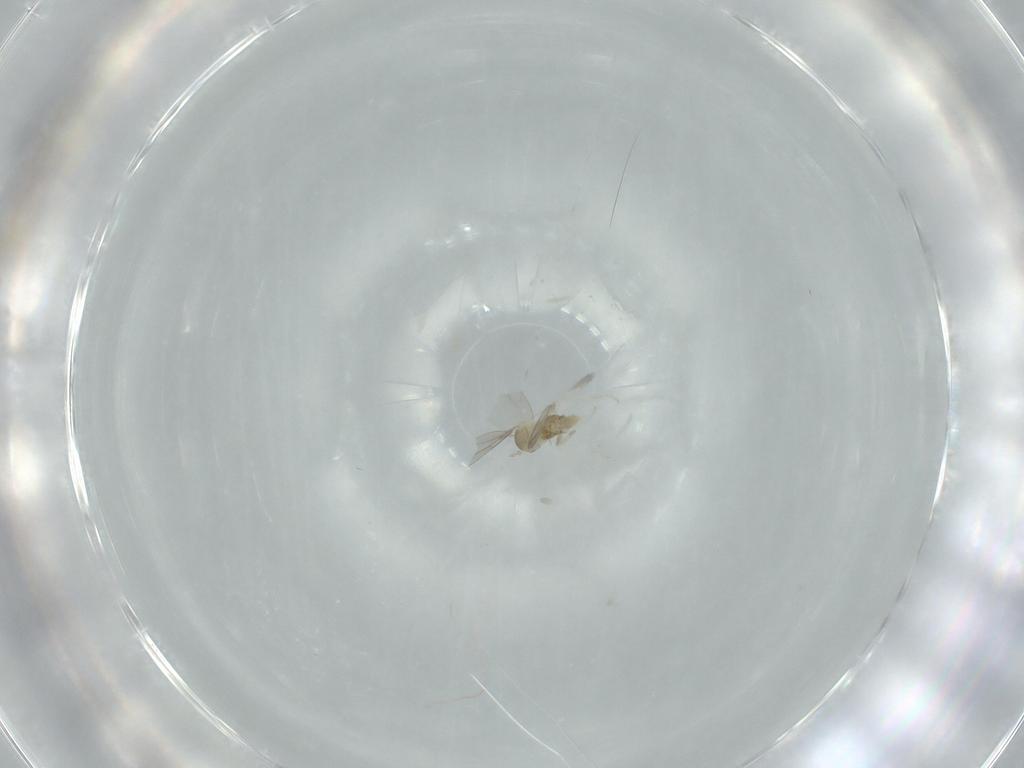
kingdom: Animalia
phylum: Arthropoda
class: Insecta
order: Diptera
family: Cecidomyiidae
